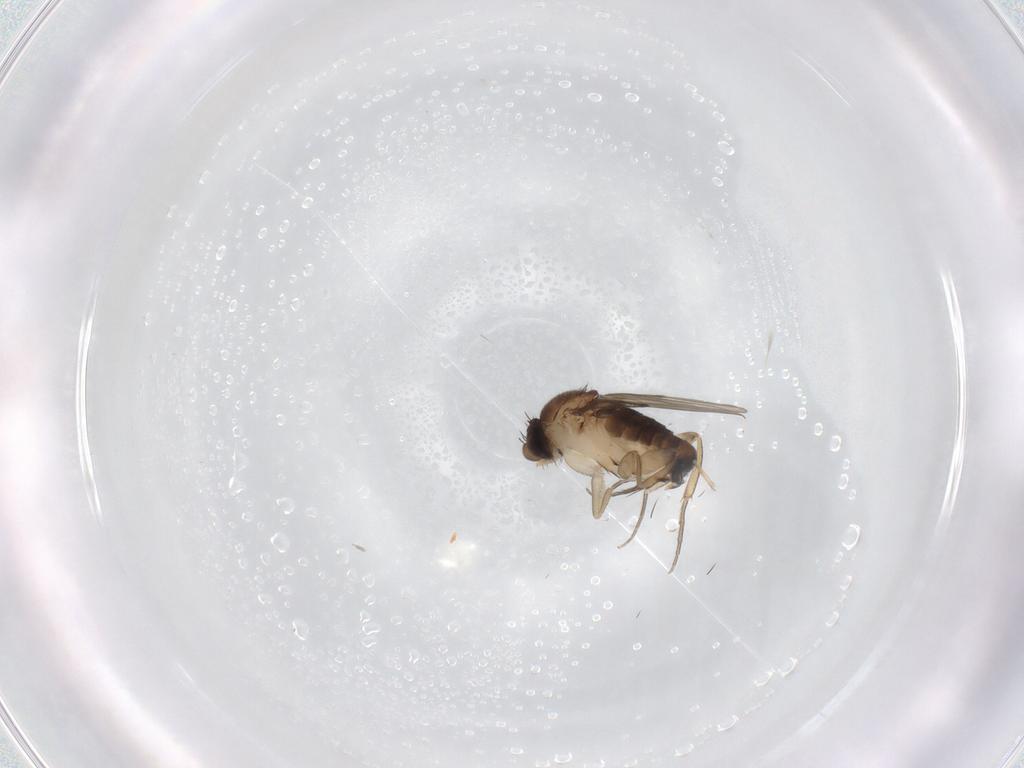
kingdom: Animalia
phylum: Arthropoda
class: Insecta
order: Diptera
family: Phoridae
